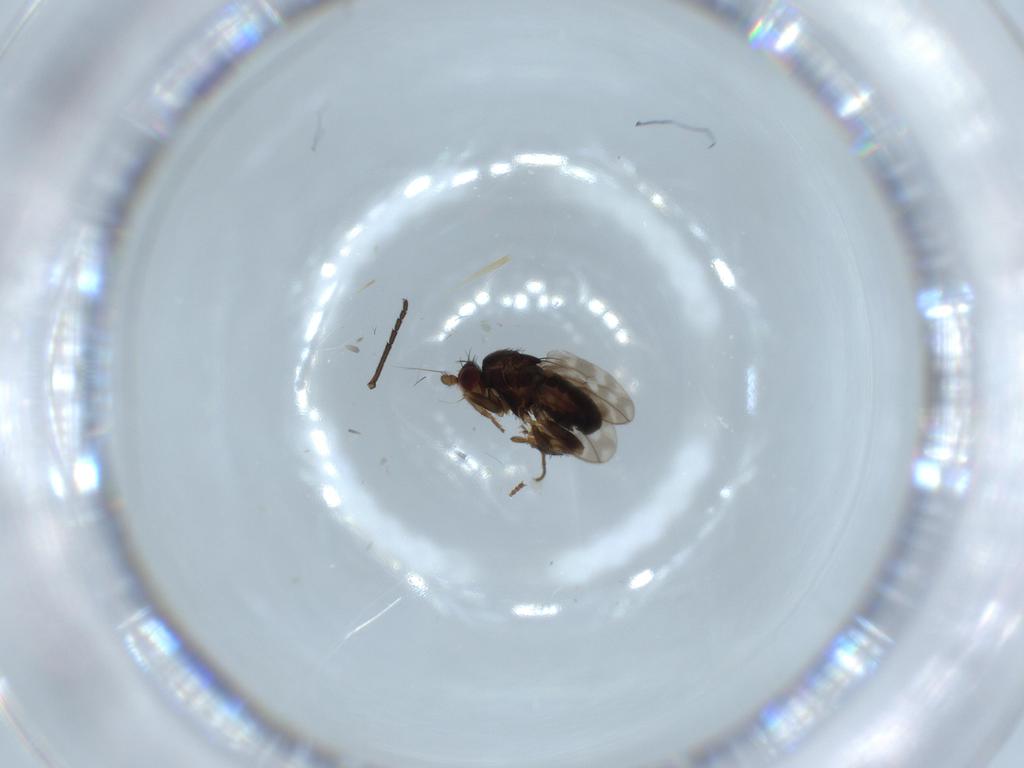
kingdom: Animalia
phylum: Arthropoda
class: Insecta
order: Diptera
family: Sphaeroceridae
